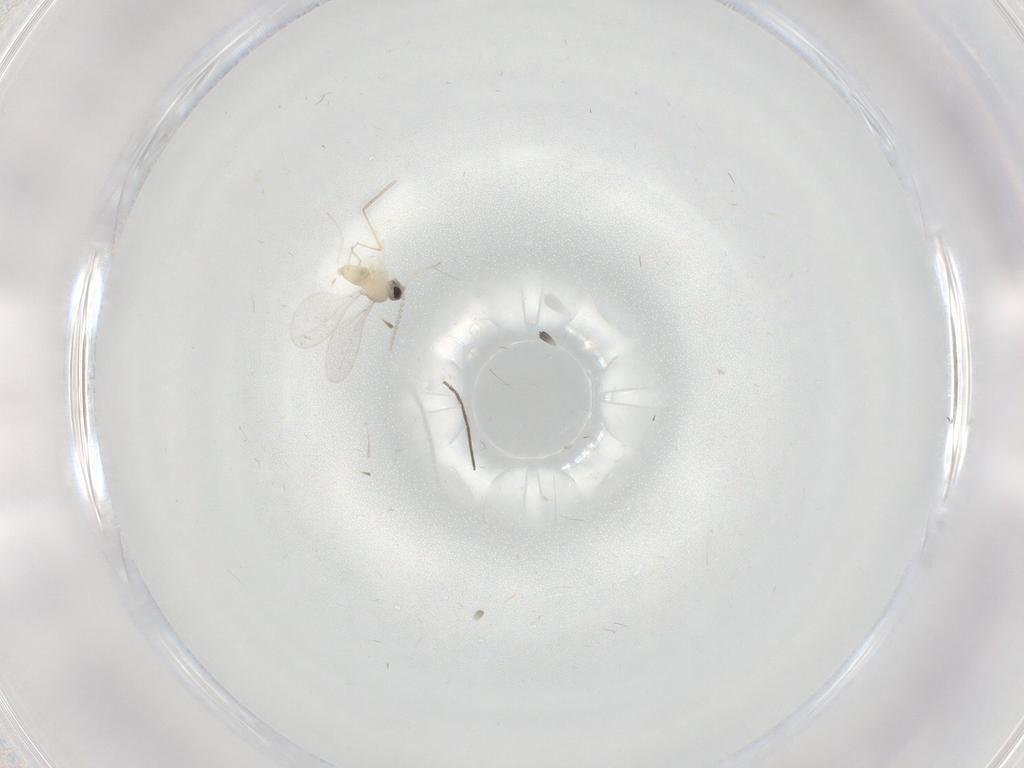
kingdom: Animalia
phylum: Arthropoda
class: Insecta
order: Diptera
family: Cecidomyiidae
